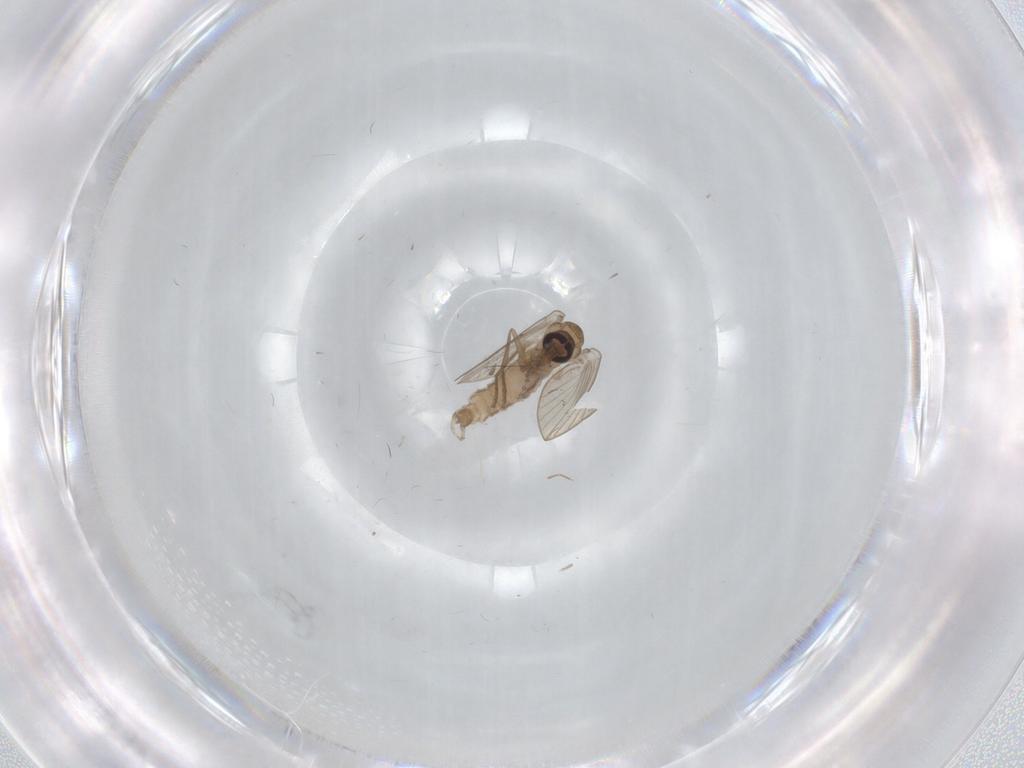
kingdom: Animalia
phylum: Arthropoda
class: Insecta
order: Diptera
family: Psychodidae
